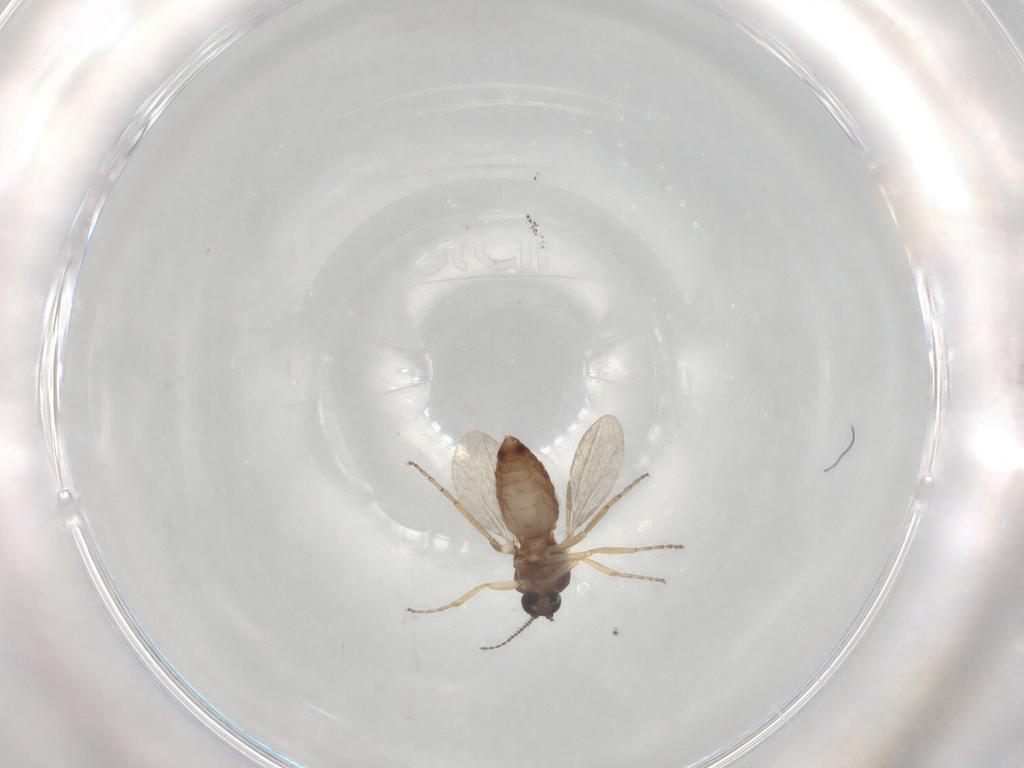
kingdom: Animalia
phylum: Arthropoda
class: Insecta
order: Diptera
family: Ceratopogonidae
